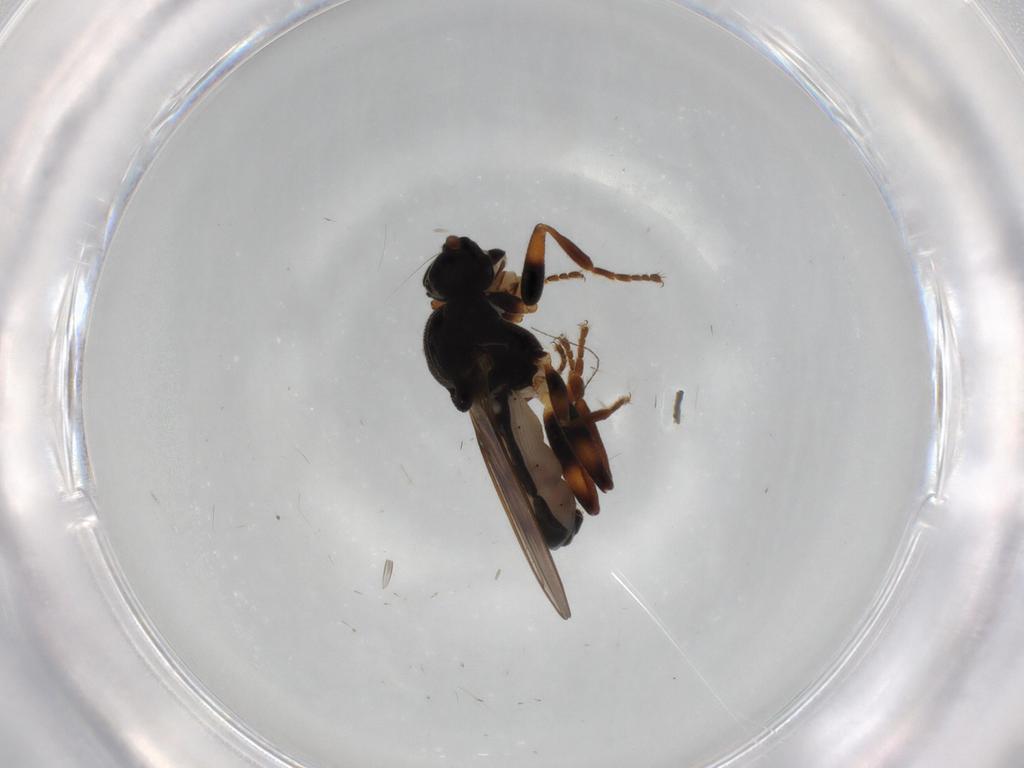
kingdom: Animalia
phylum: Arthropoda
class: Insecta
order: Diptera
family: Sphaeroceridae
